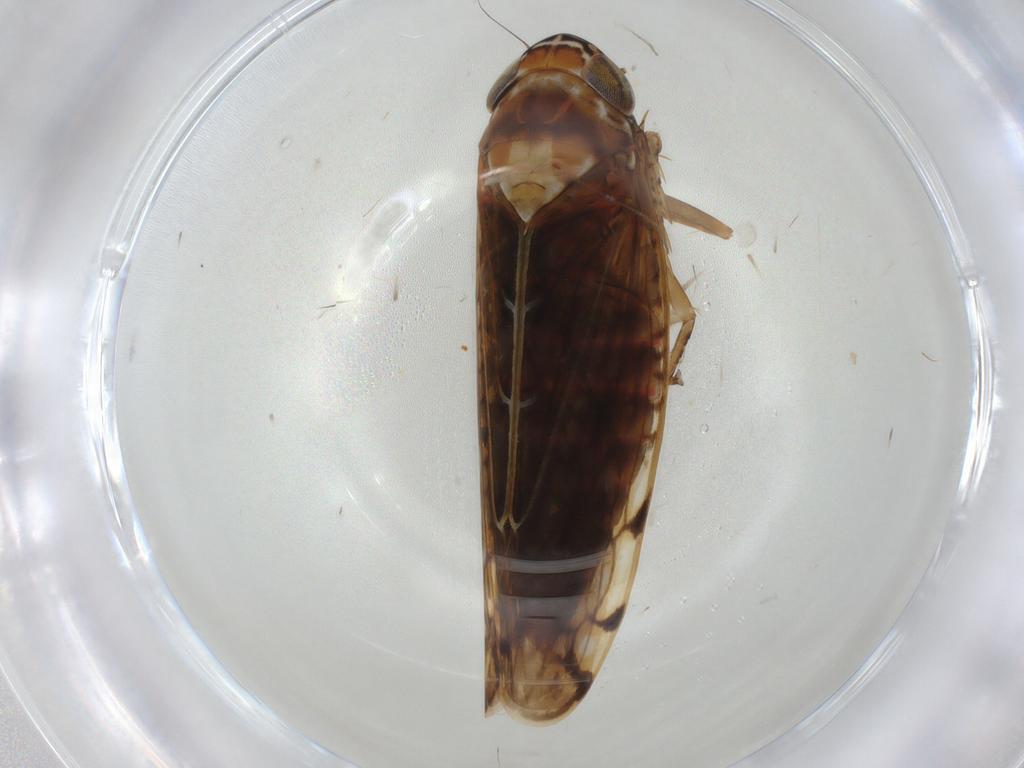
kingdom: Animalia
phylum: Arthropoda
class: Insecta
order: Hemiptera
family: Cicadellidae
